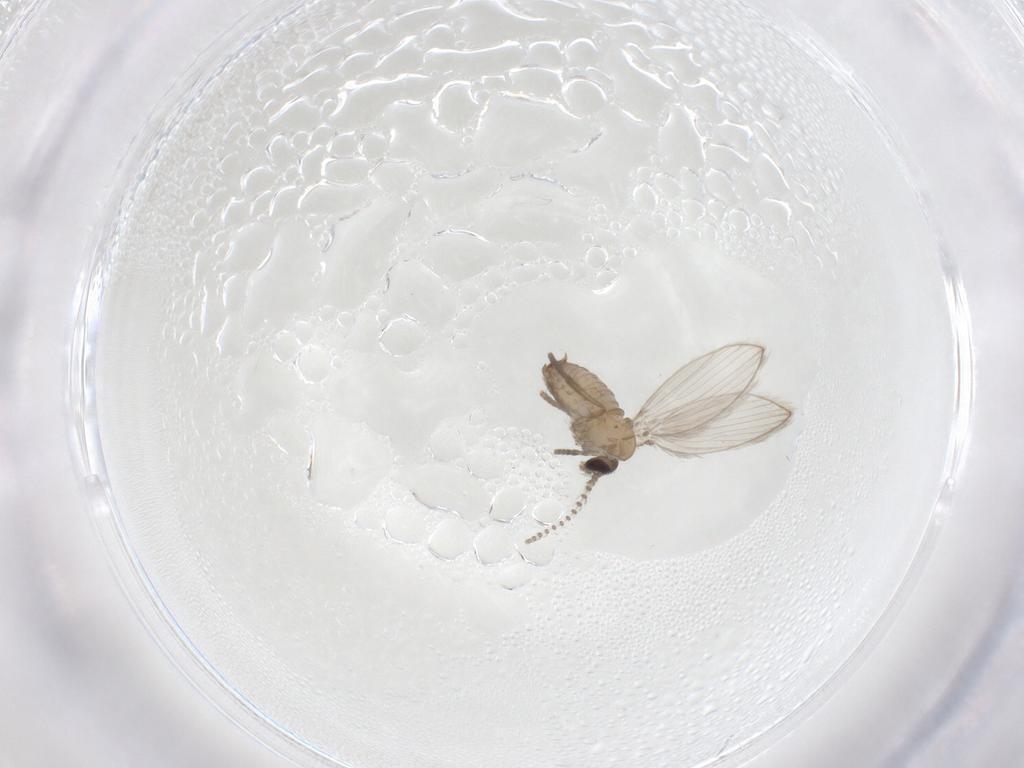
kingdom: Animalia
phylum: Arthropoda
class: Insecta
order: Diptera
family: Psychodidae
